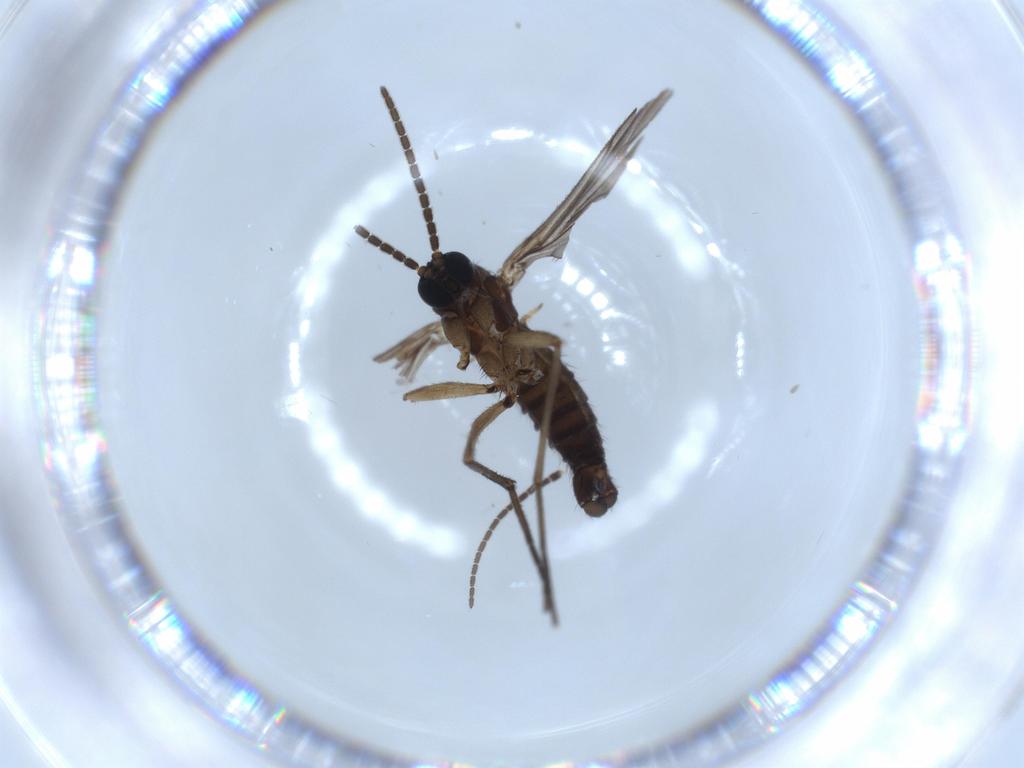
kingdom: Animalia
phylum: Arthropoda
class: Insecta
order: Diptera
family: Sciaridae
